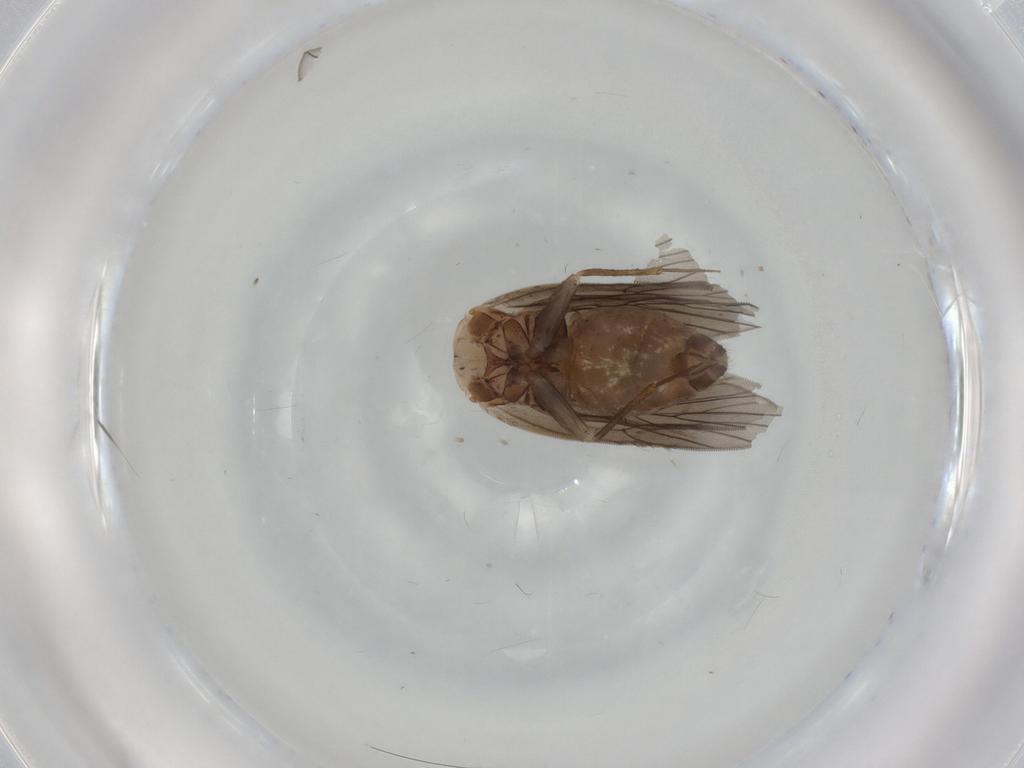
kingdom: Animalia
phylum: Arthropoda
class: Insecta
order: Psocodea
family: Lepidopsocidae
